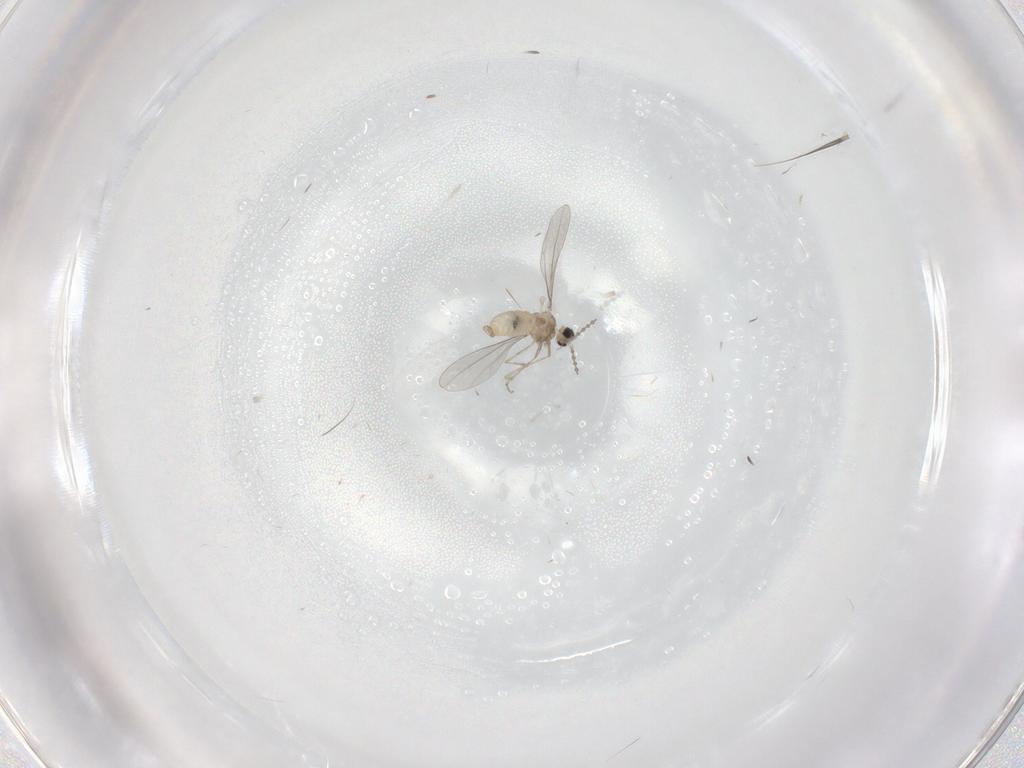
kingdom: Animalia
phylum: Arthropoda
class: Insecta
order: Diptera
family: Cecidomyiidae
